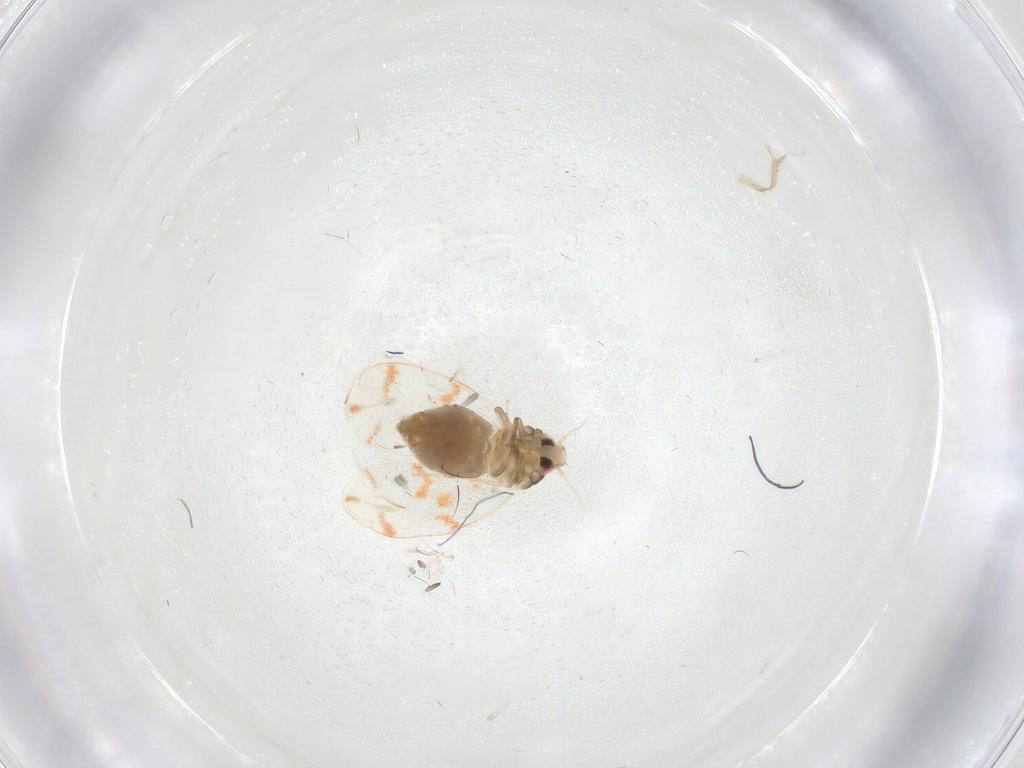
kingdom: Animalia
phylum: Arthropoda
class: Insecta
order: Hemiptera
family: Aleyrodidae
